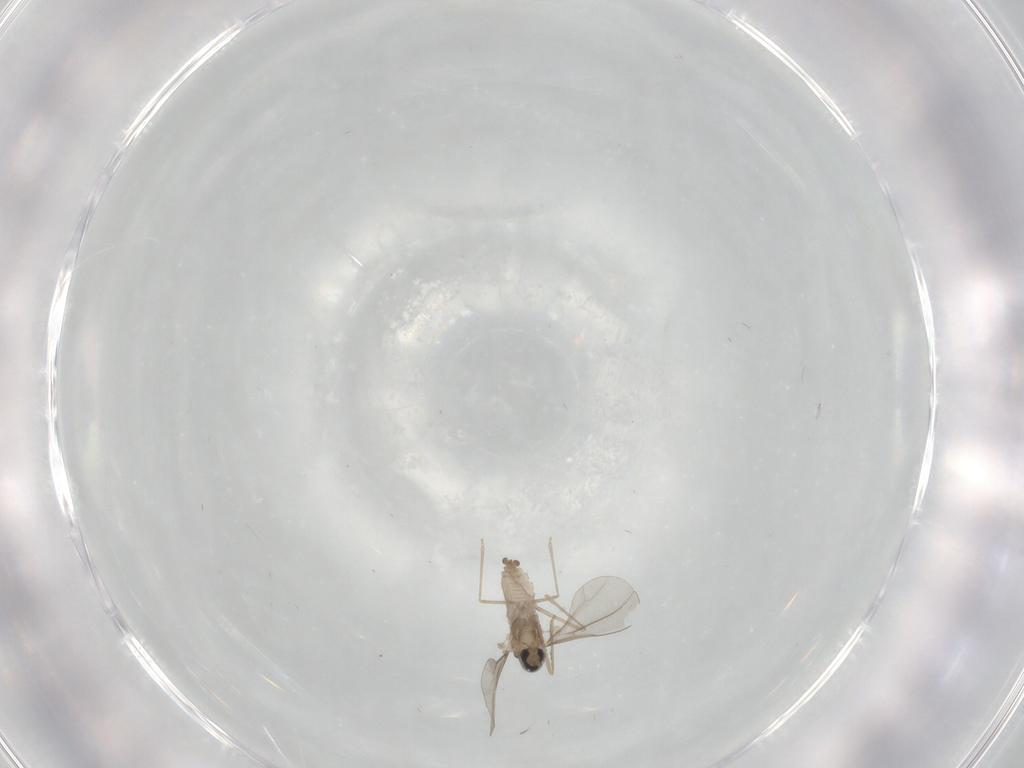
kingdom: Animalia
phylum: Arthropoda
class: Insecta
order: Diptera
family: Cecidomyiidae
